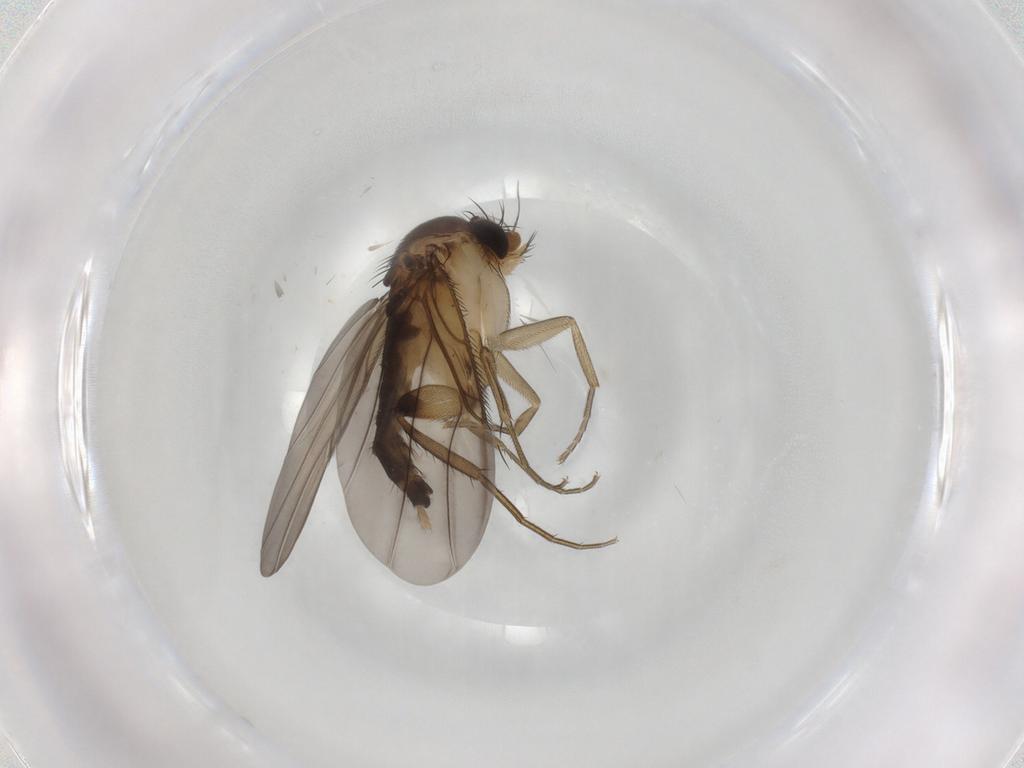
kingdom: Animalia
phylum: Arthropoda
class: Insecta
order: Diptera
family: Phoridae
